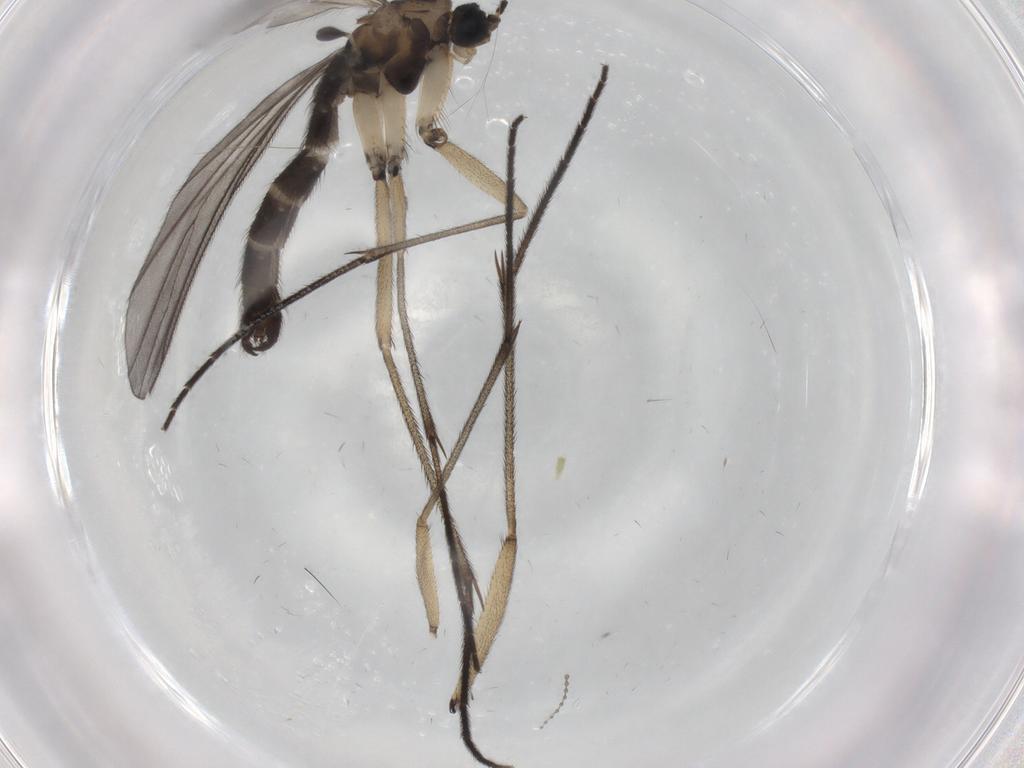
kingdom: Animalia
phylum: Arthropoda
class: Insecta
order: Diptera
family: Sciaridae
